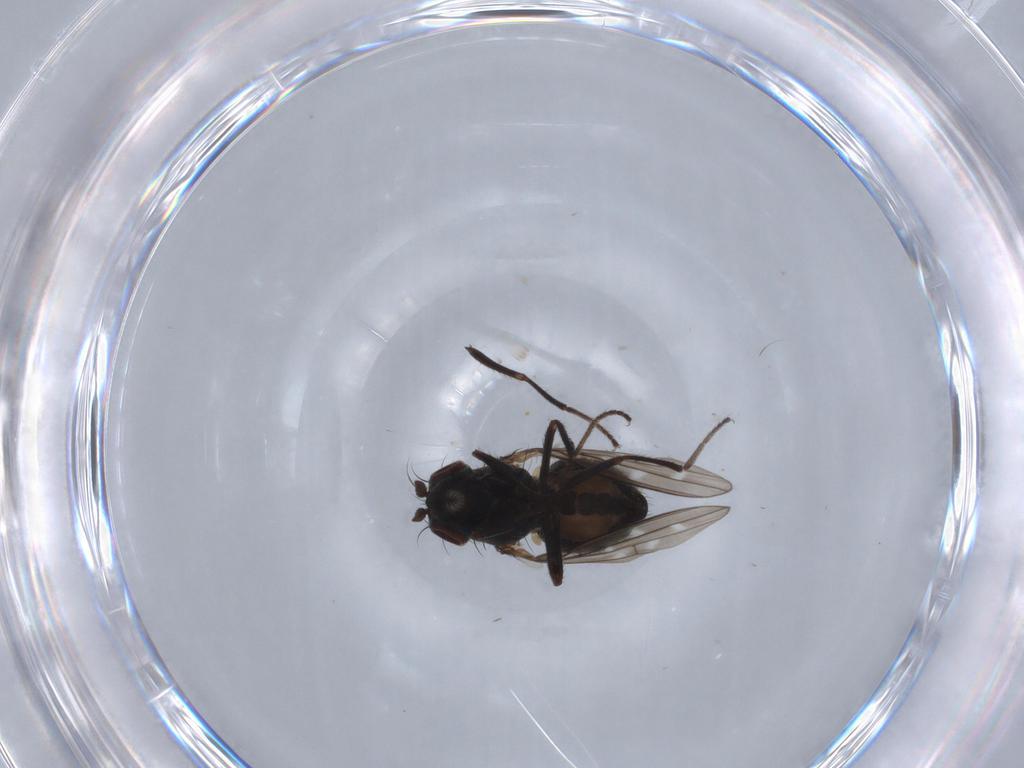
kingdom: Animalia
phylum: Arthropoda
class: Insecta
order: Diptera
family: Ephydridae
